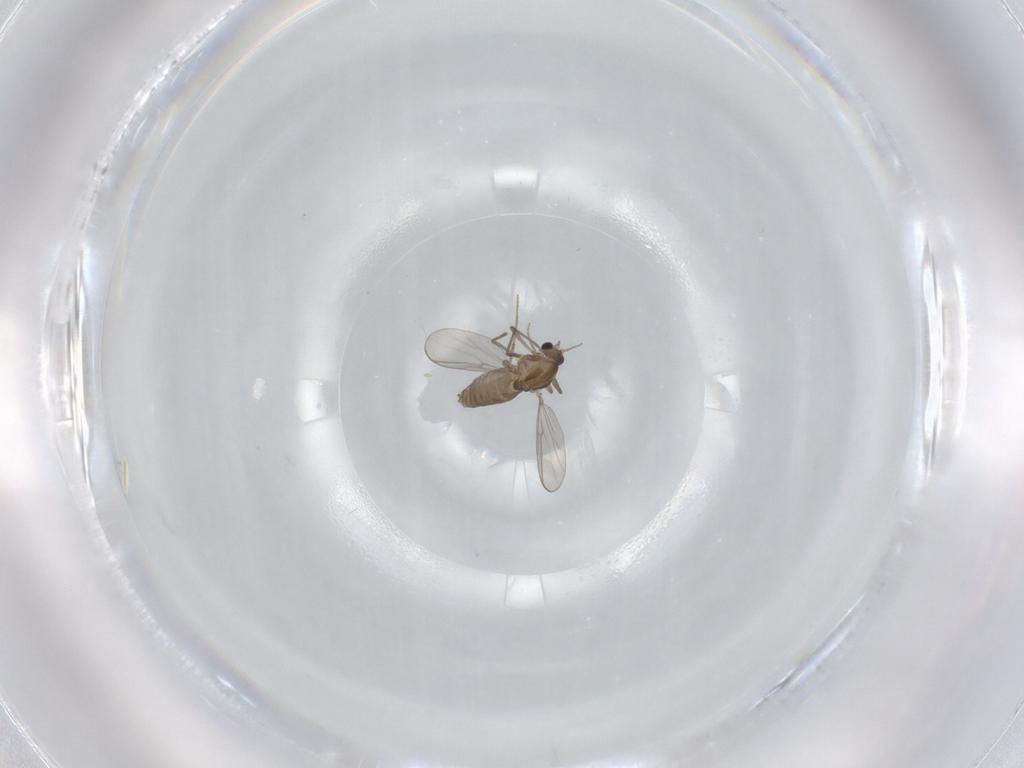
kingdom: Animalia
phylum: Arthropoda
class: Insecta
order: Diptera
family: Chironomidae
